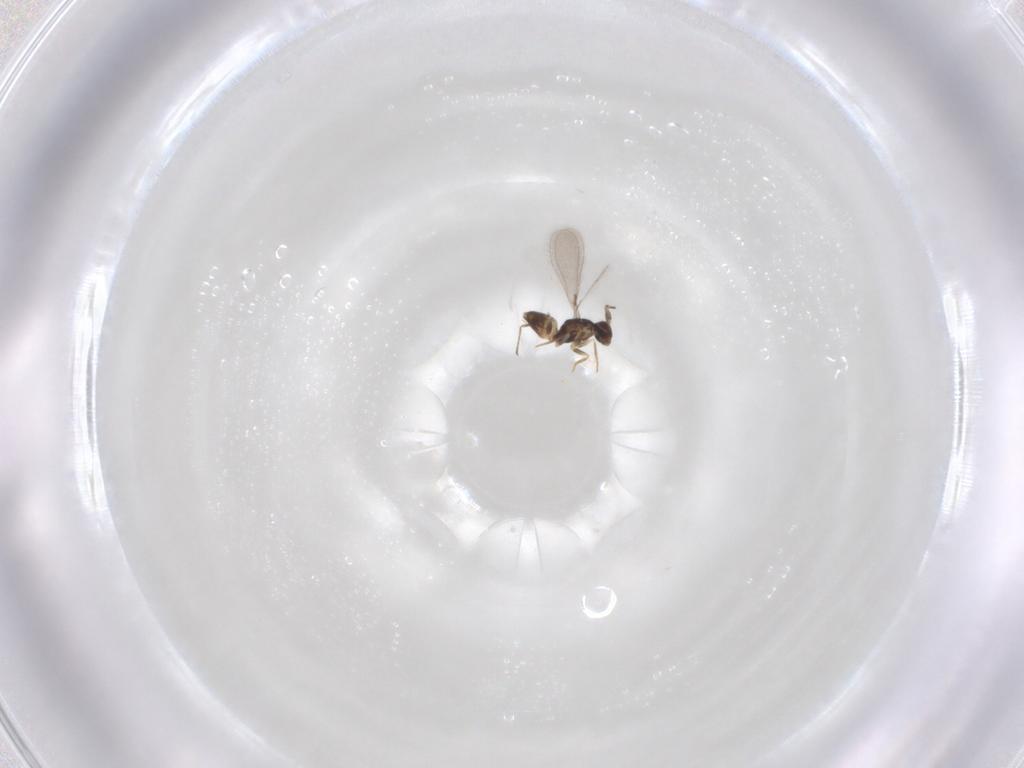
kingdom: Animalia
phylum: Arthropoda
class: Insecta
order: Hymenoptera
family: Mymaridae
